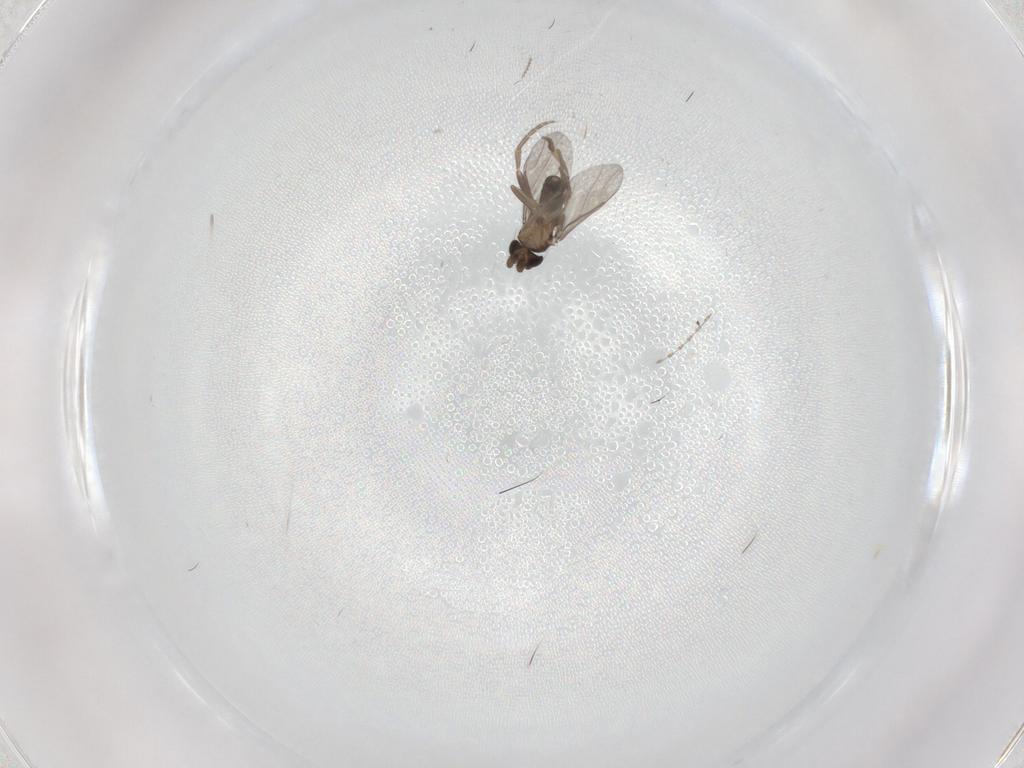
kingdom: Animalia
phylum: Arthropoda
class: Insecta
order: Diptera
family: Cecidomyiidae
